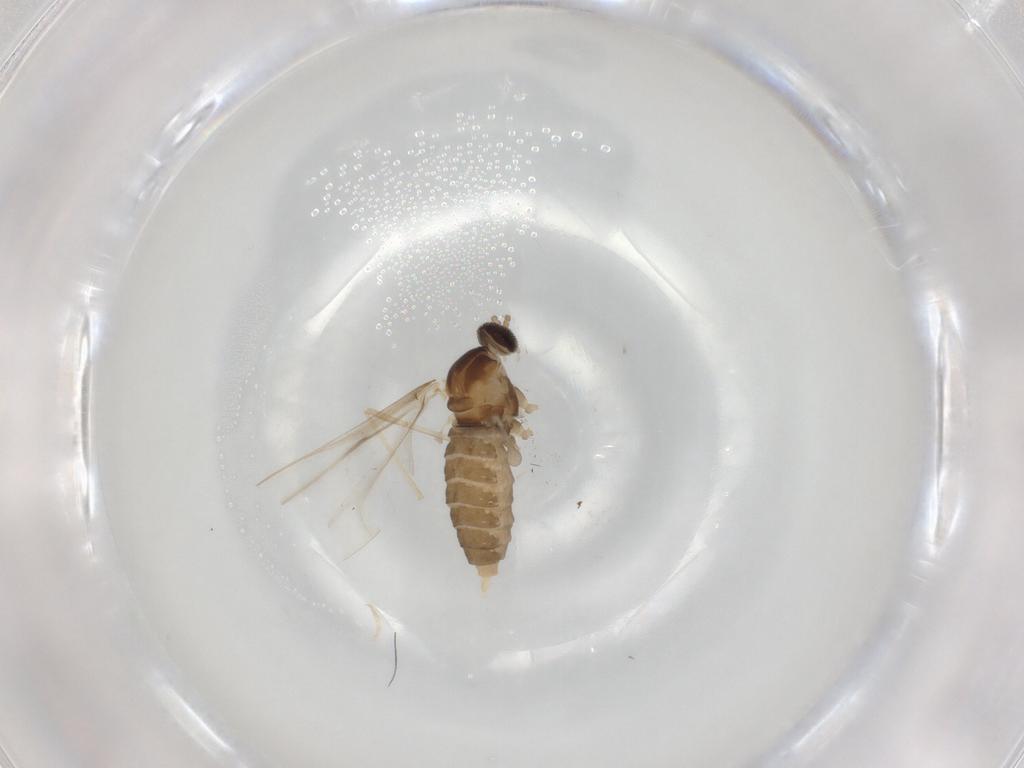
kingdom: Animalia
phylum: Arthropoda
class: Insecta
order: Diptera
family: Cecidomyiidae
